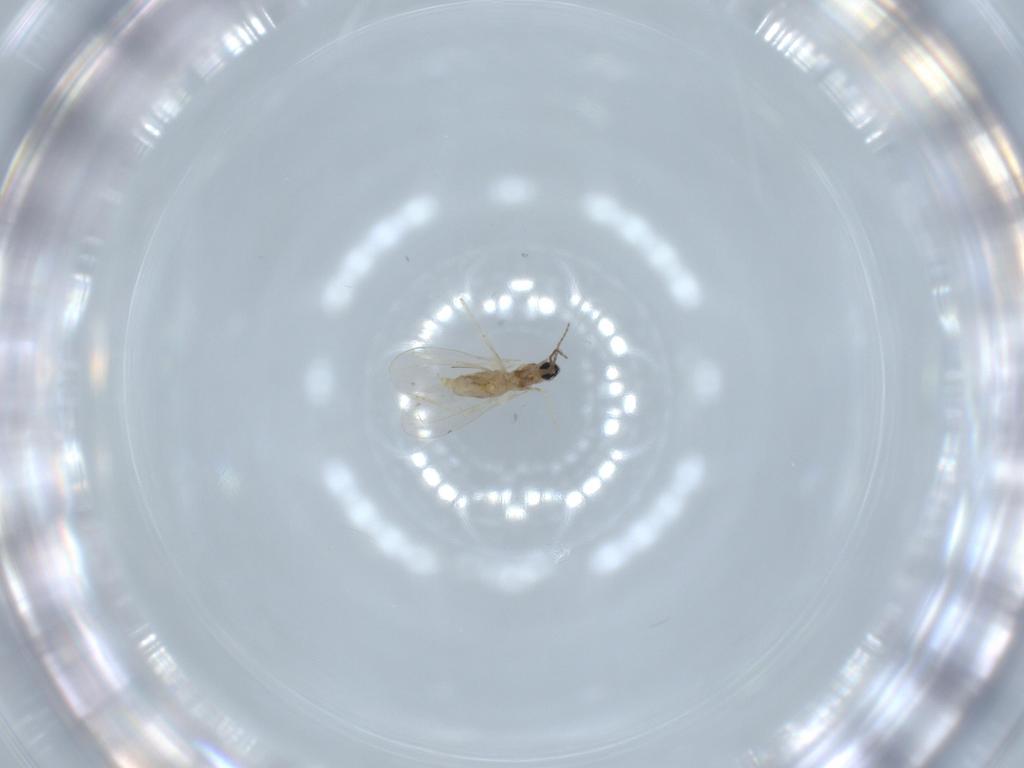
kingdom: Animalia
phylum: Arthropoda
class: Insecta
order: Diptera
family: Cecidomyiidae
